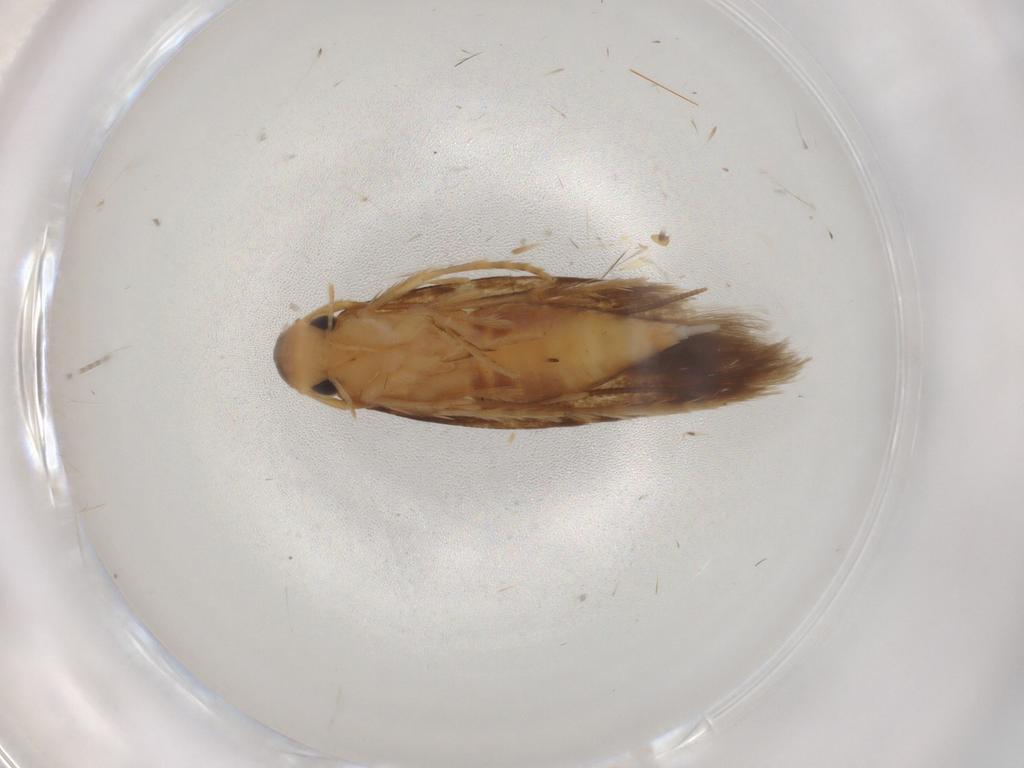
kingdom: Animalia
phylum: Arthropoda
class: Insecta
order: Lepidoptera
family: Tineidae
